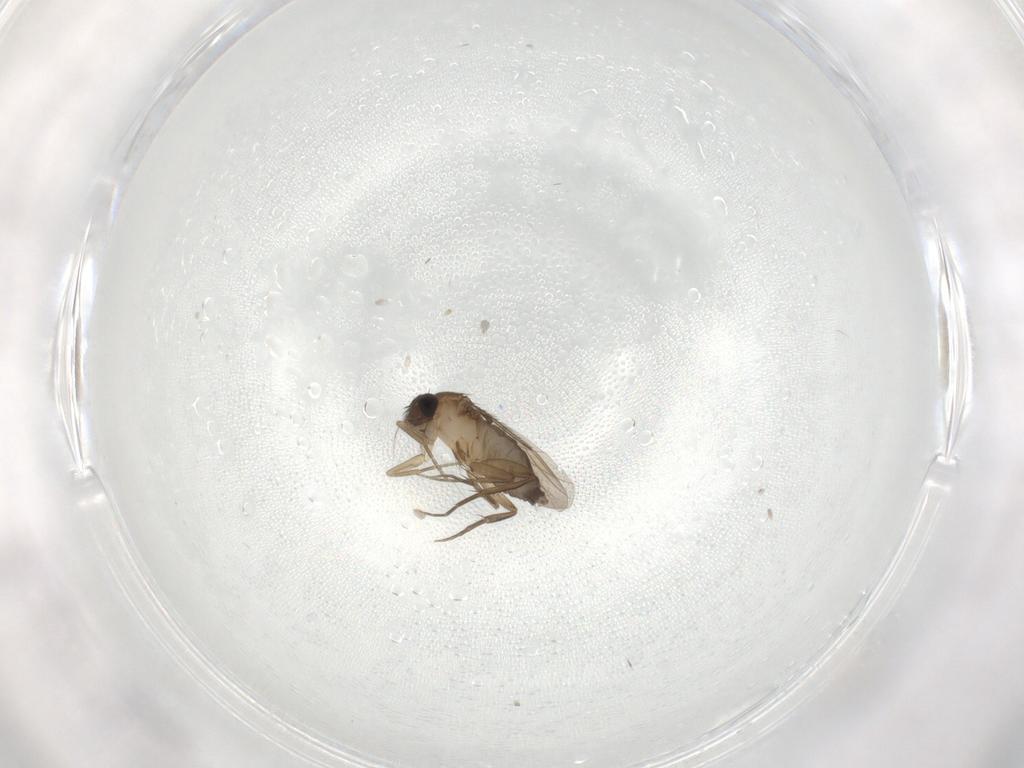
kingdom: Animalia
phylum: Arthropoda
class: Insecta
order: Diptera
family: Phoridae
